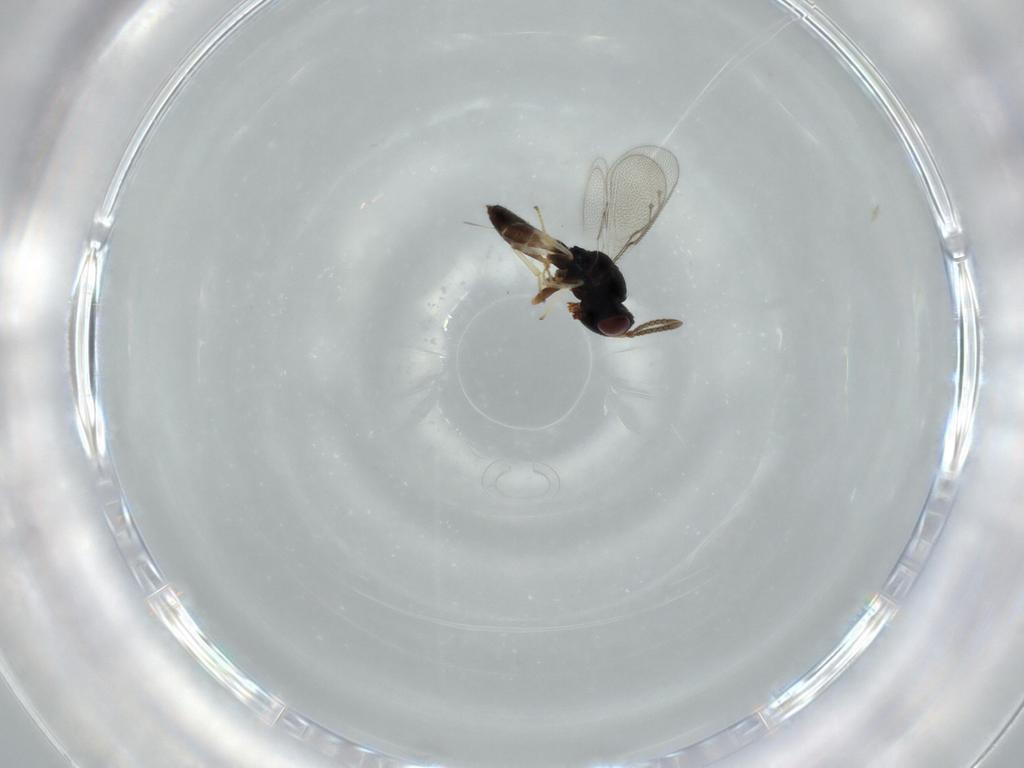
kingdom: Animalia
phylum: Arthropoda
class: Insecta
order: Hymenoptera
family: Pteromalidae
